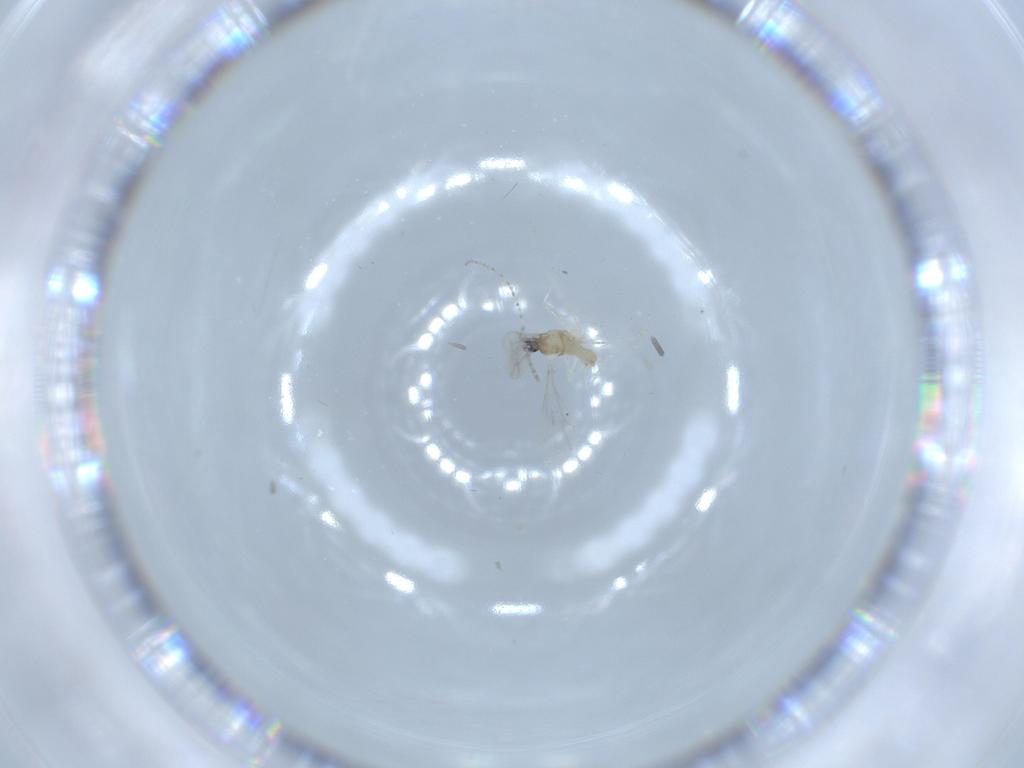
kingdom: Animalia
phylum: Arthropoda
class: Insecta
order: Diptera
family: Cecidomyiidae
